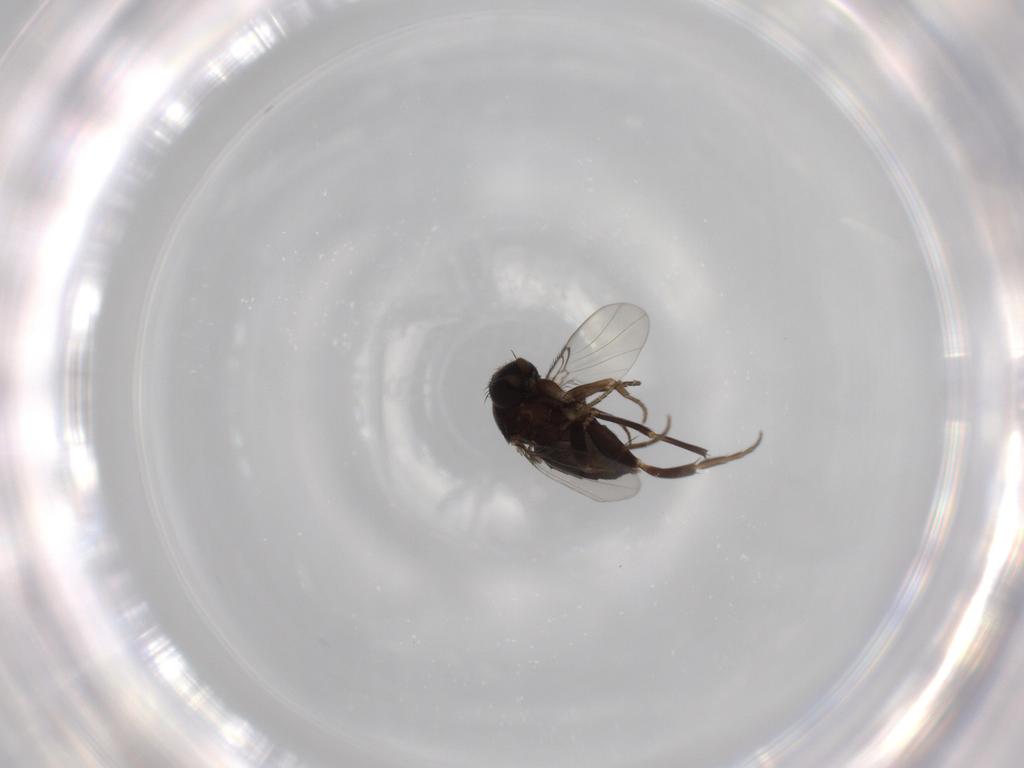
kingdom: Animalia
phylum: Arthropoda
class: Insecta
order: Diptera
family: Phoridae
